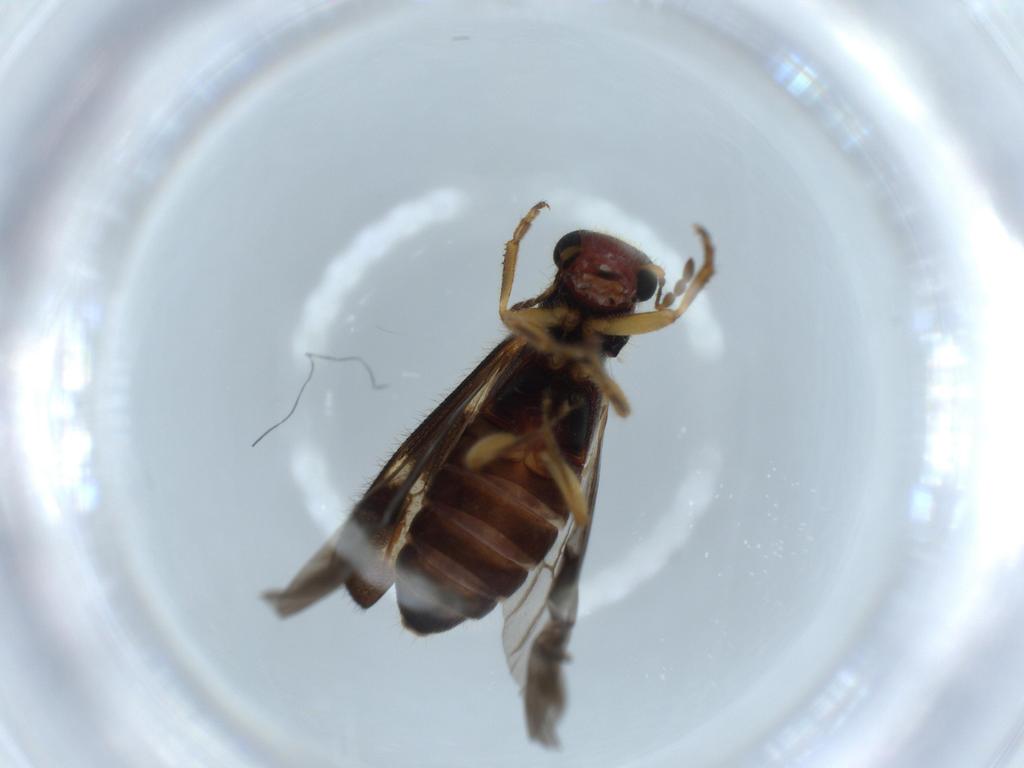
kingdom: Animalia
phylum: Arthropoda
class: Insecta
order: Coleoptera
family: Cleridae
